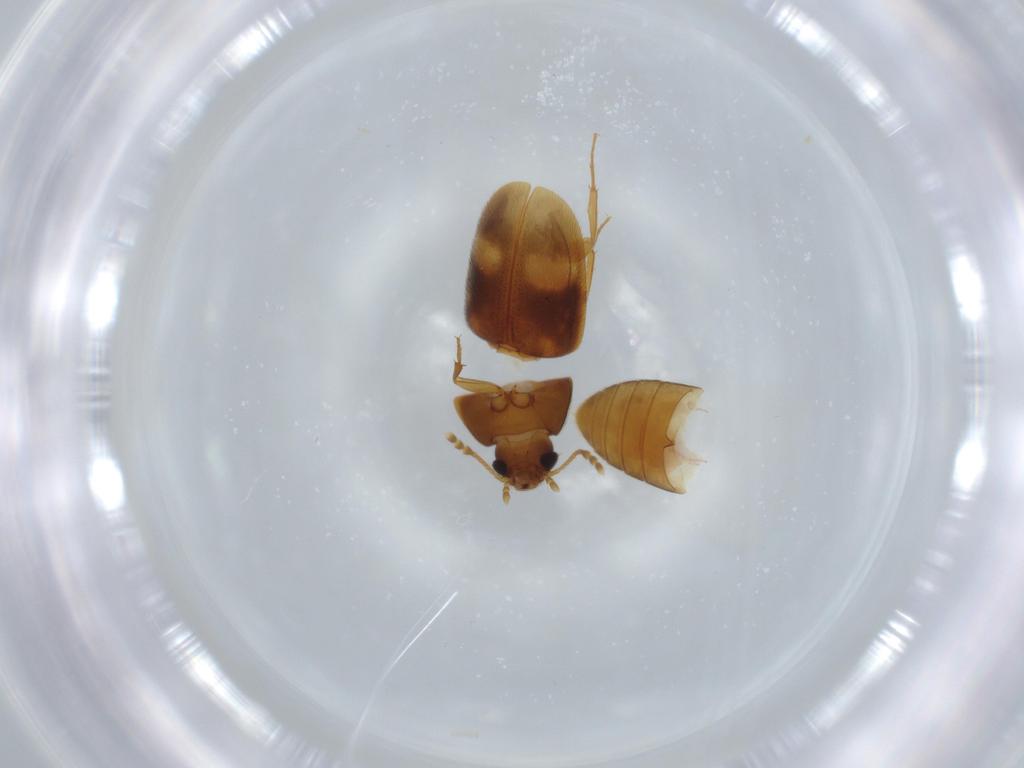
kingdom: Animalia
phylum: Arthropoda
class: Insecta
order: Coleoptera
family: Mycetophagidae
